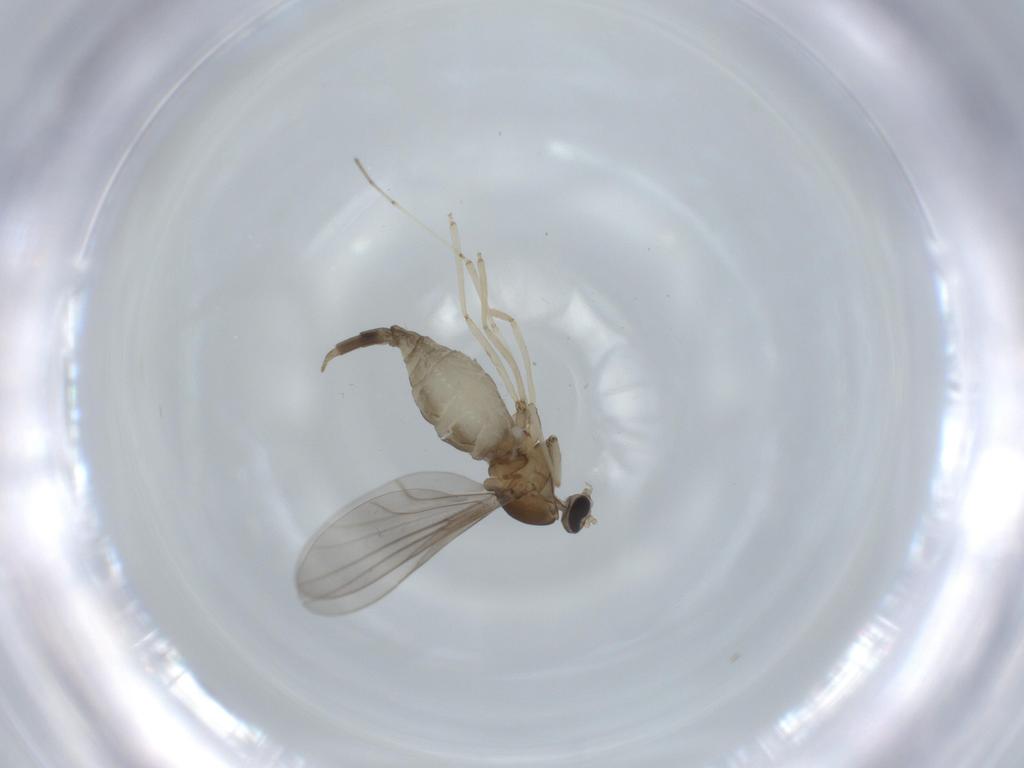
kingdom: Animalia
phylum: Arthropoda
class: Insecta
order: Diptera
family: Cecidomyiidae
